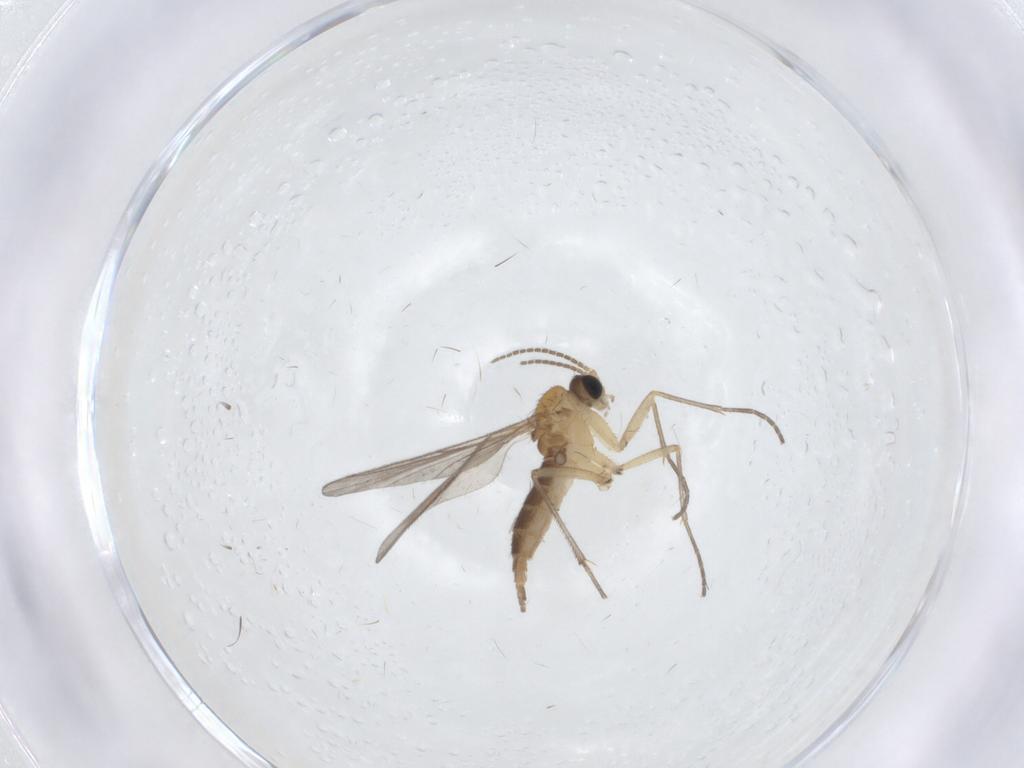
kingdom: Animalia
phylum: Arthropoda
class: Insecta
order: Diptera
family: Sciaridae
